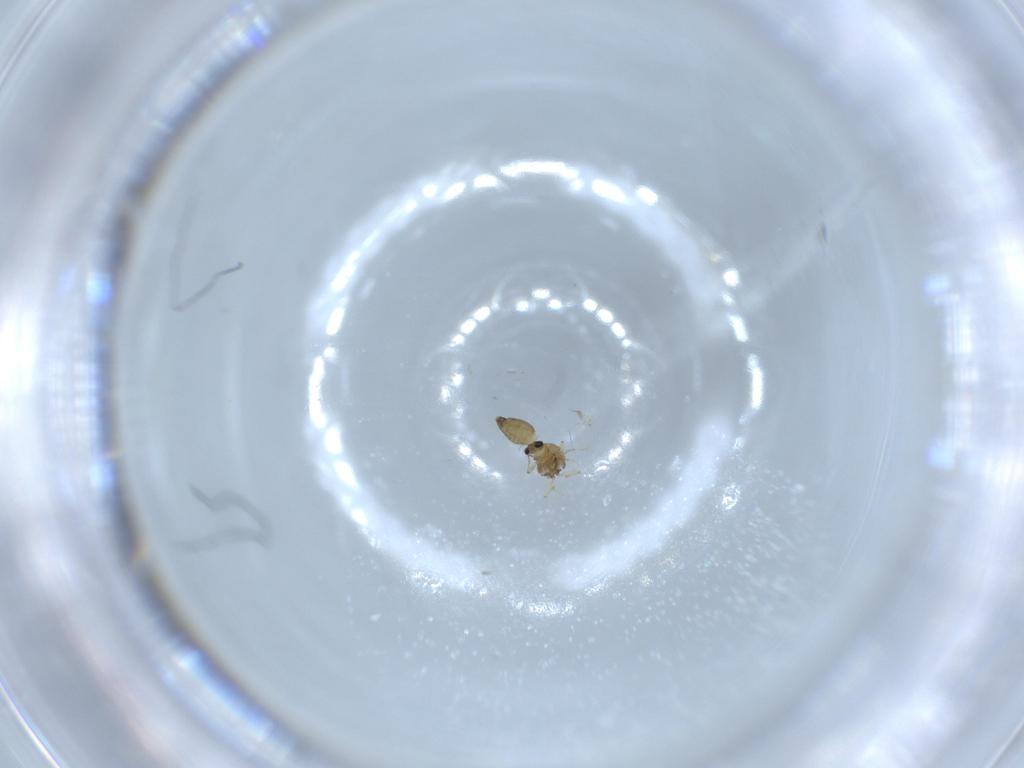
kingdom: Animalia
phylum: Arthropoda
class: Insecta
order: Diptera
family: Chironomidae
